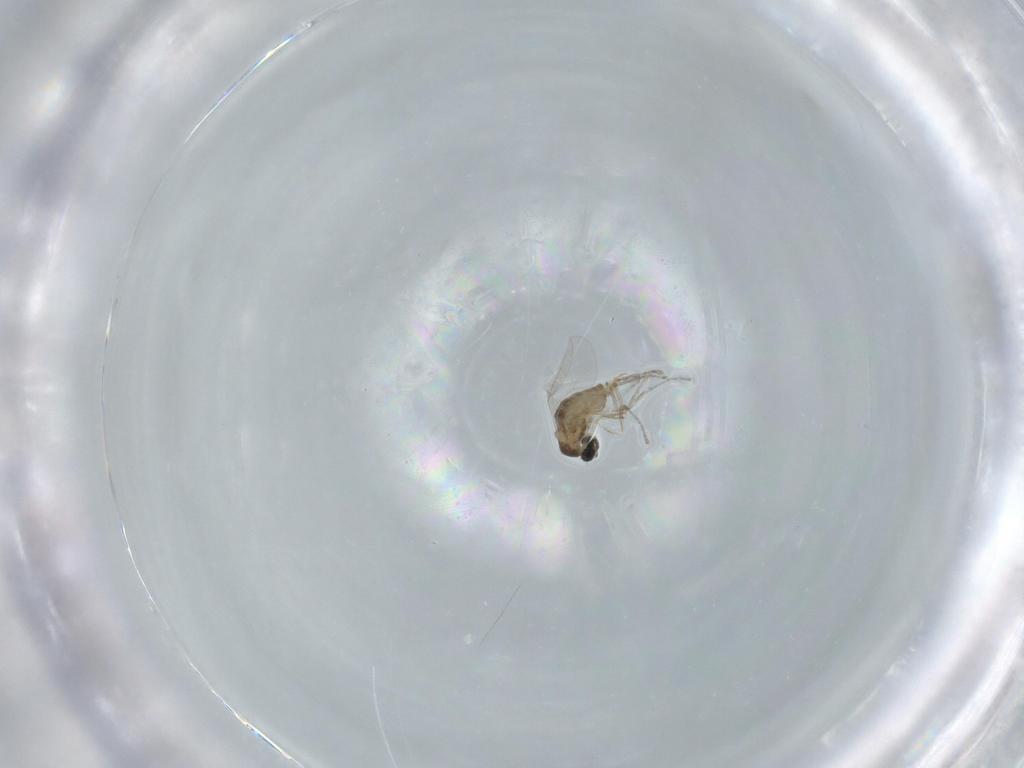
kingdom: Animalia
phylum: Arthropoda
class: Insecta
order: Diptera
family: Cecidomyiidae
